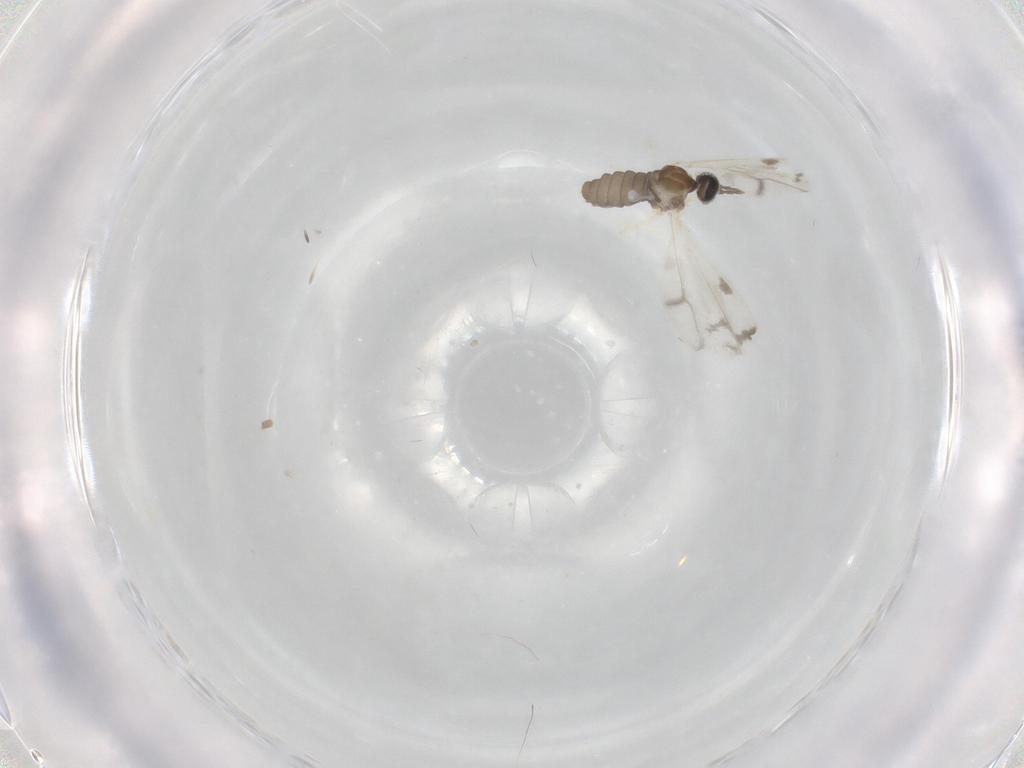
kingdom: Animalia
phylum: Arthropoda
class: Insecta
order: Diptera
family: Cecidomyiidae
